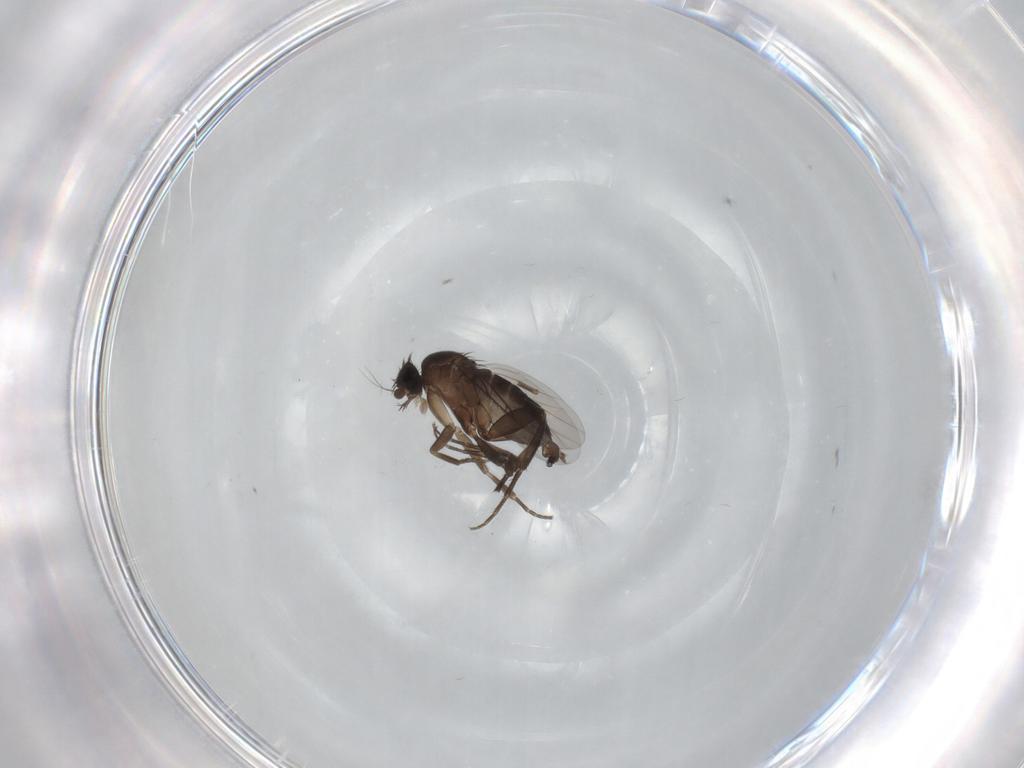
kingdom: Animalia
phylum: Arthropoda
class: Insecta
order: Diptera
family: Phoridae
